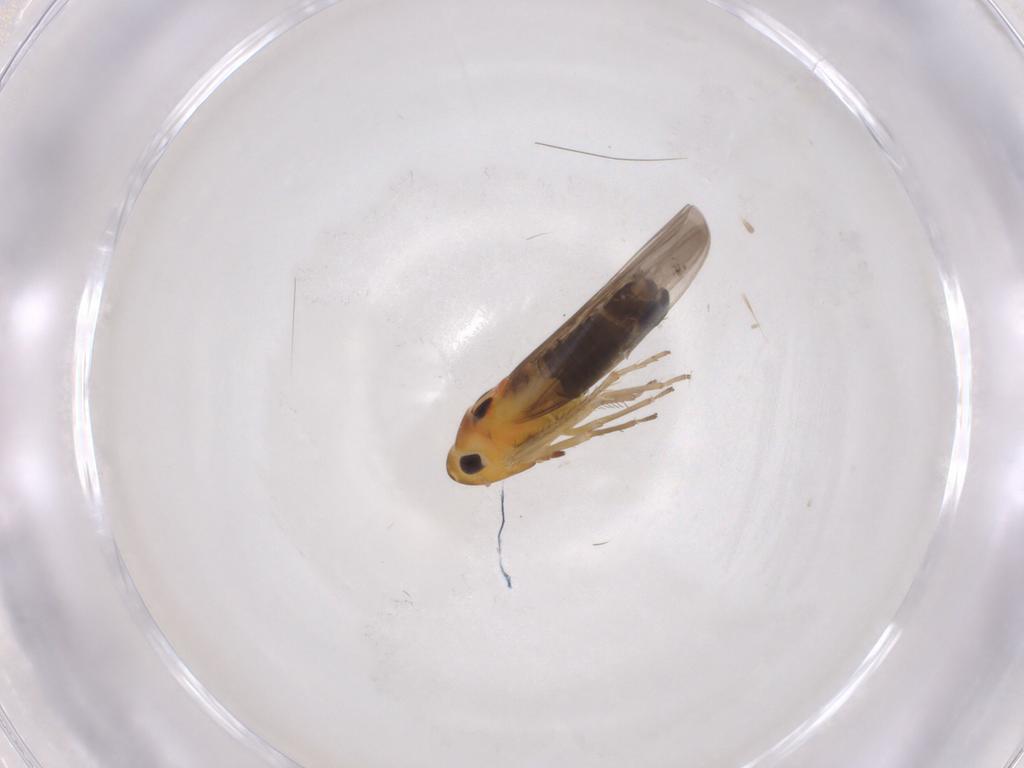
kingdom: Animalia
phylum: Arthropoda
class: Insecta
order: Hemiptera
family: Cicadellidae
